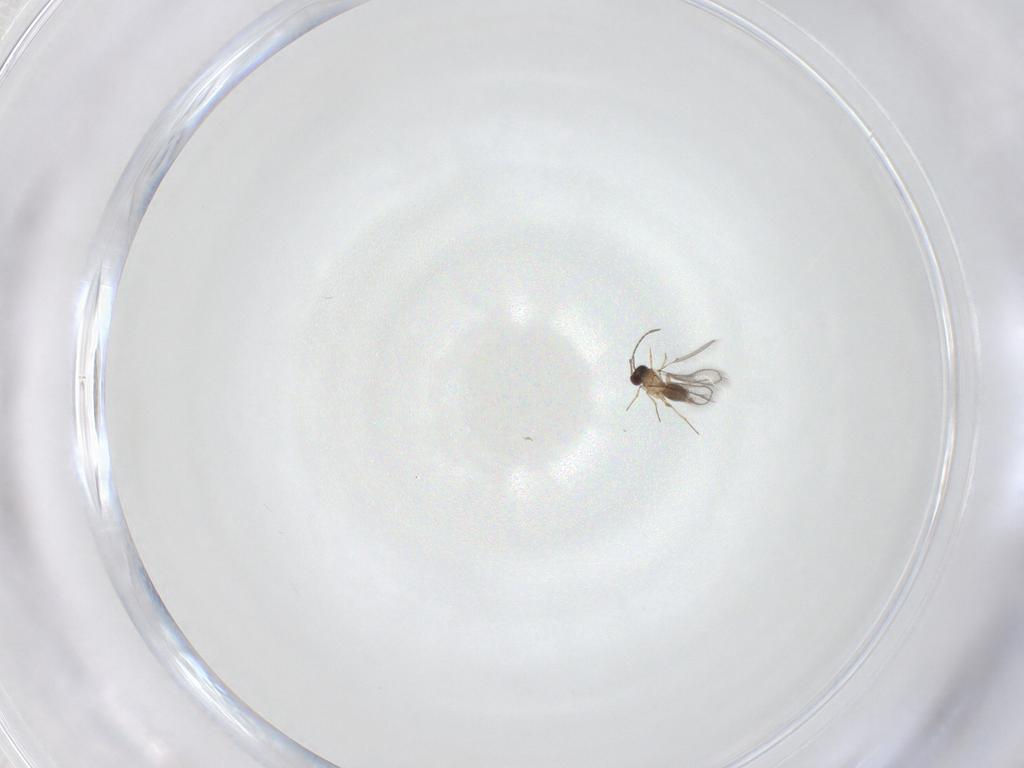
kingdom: Animalia
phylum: Arthropoda
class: Insecta
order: Hymenoptera
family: Mymaridae
